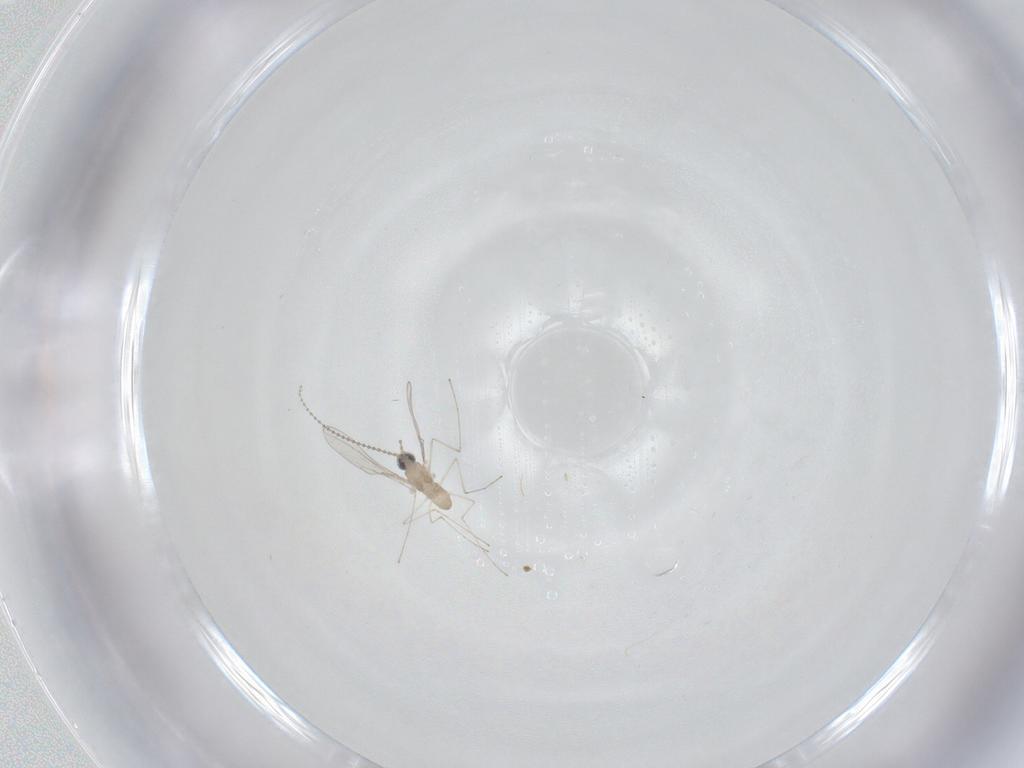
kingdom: Animalia
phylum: Arthropoda
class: Insecta
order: Diptera
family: Cecidomyiidae
